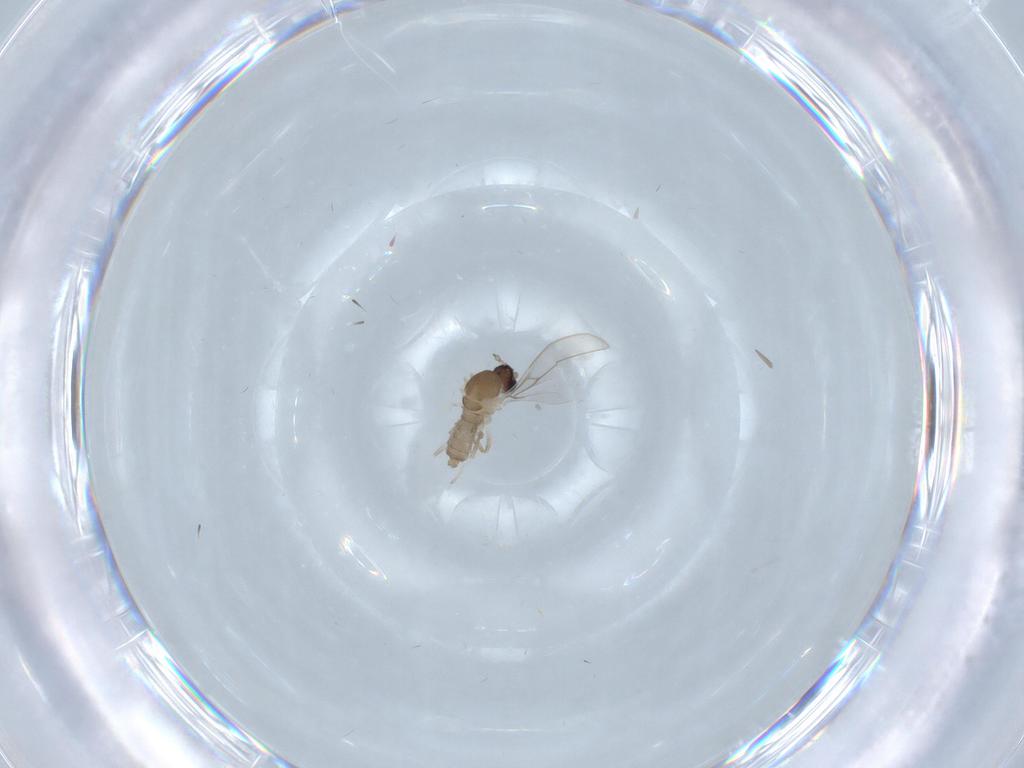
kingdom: Animalia
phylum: Arthropoda
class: Insecta
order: Diptera
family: Cecidomyiidae
